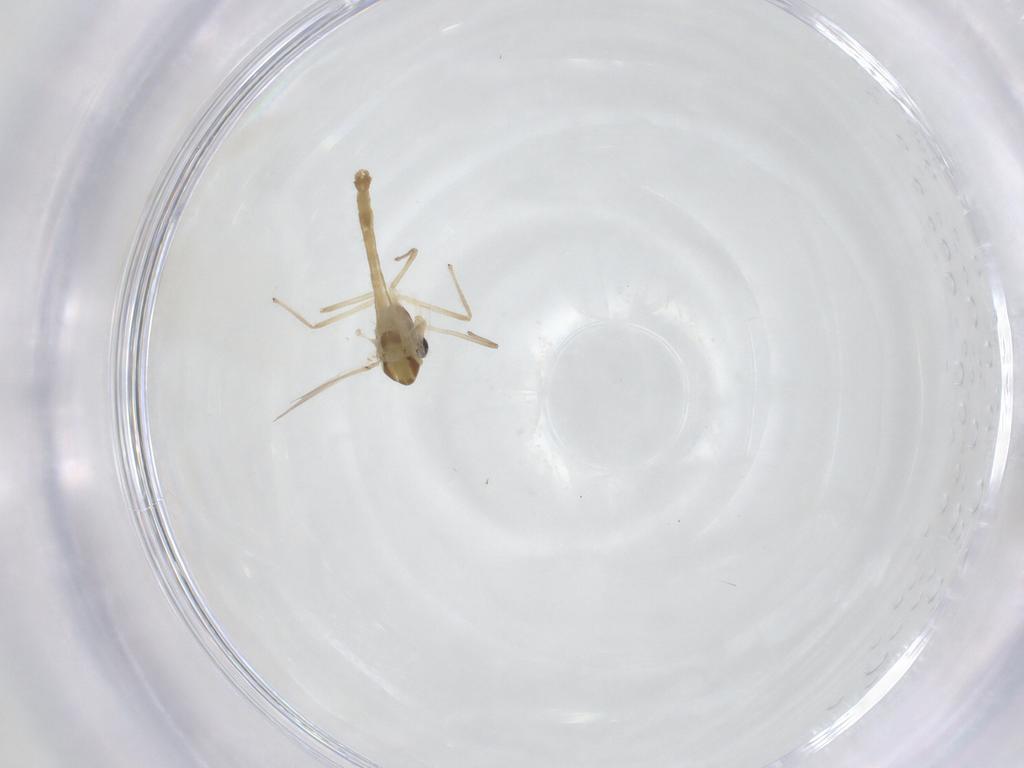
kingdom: Animalia
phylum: Arthropoda
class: Insecta
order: Diptera
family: Chironomidae
